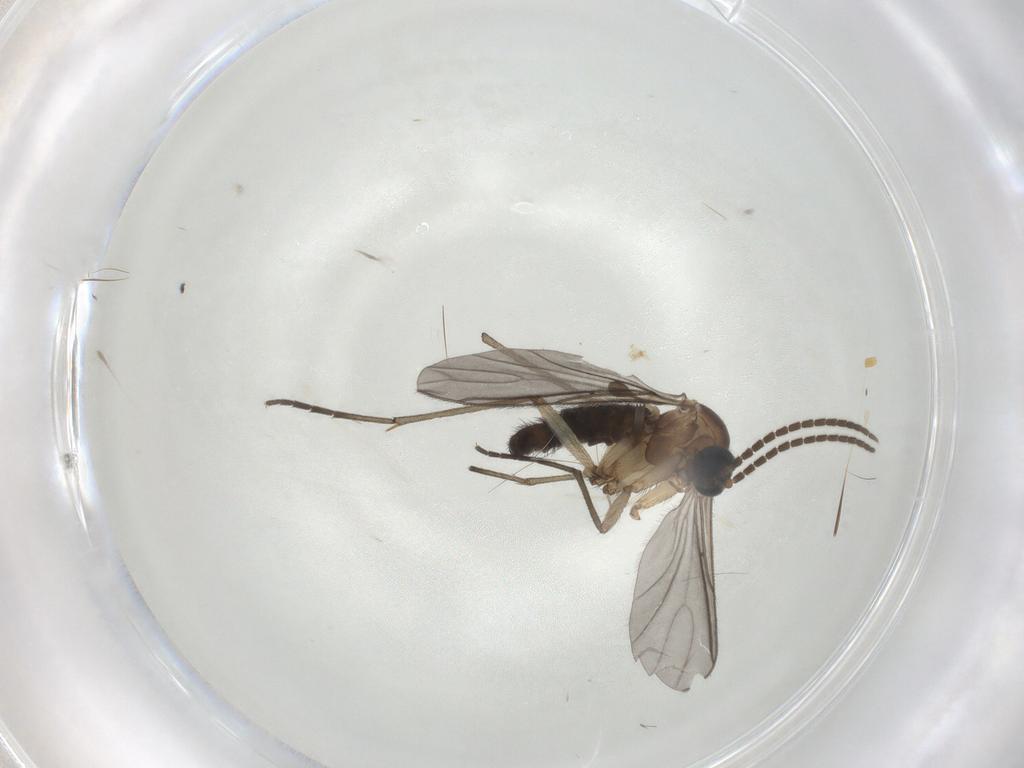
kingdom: Animalia
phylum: Arthropoda
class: Insecta
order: Diptera
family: Sciaridae
